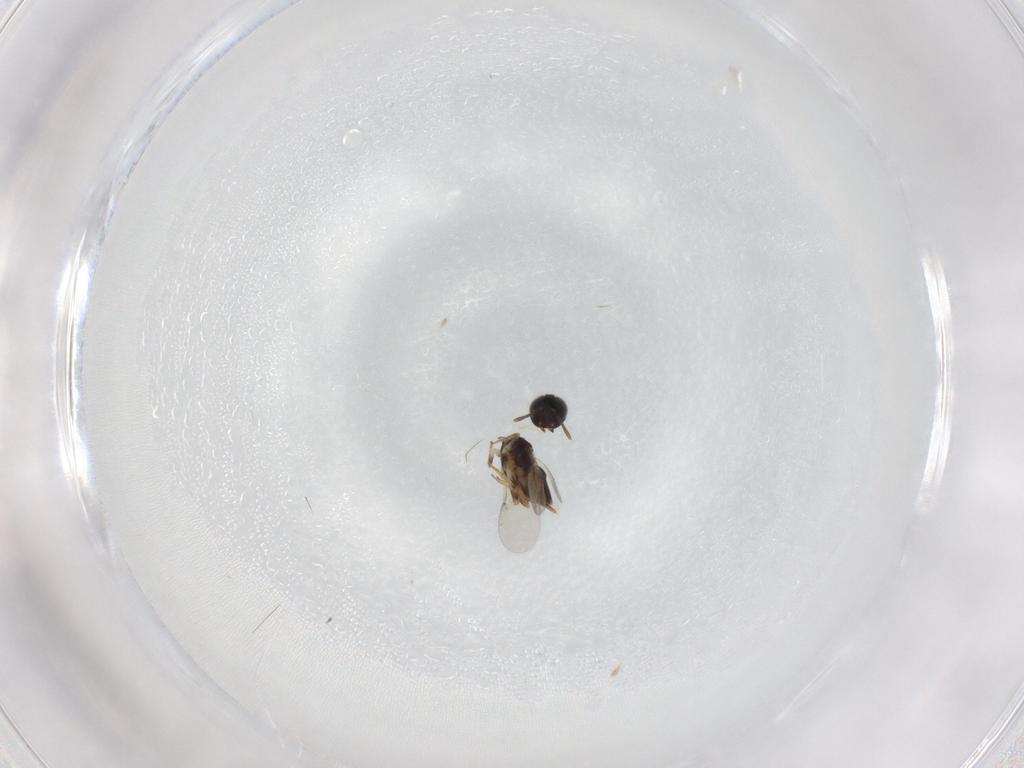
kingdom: Animalia
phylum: Arthropoda
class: Insecta
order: Hymenoptera
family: Encyrtidae
